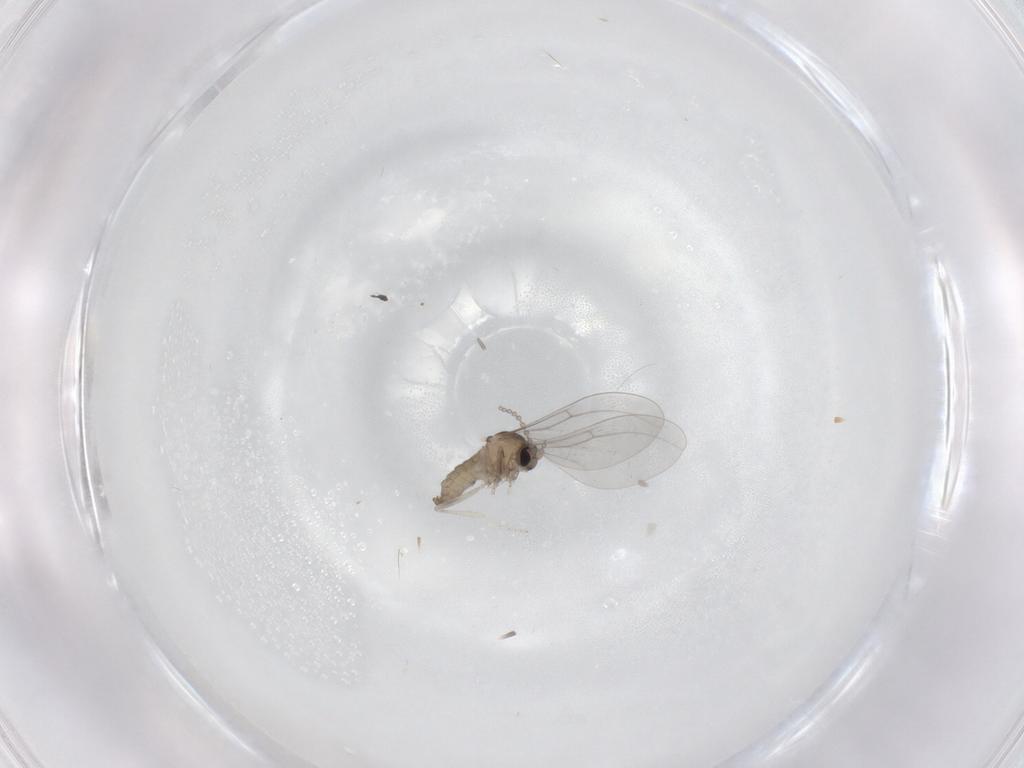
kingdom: Animalia
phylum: Arthropoda
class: Insecta
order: Diptera
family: Cecidomyiidae
